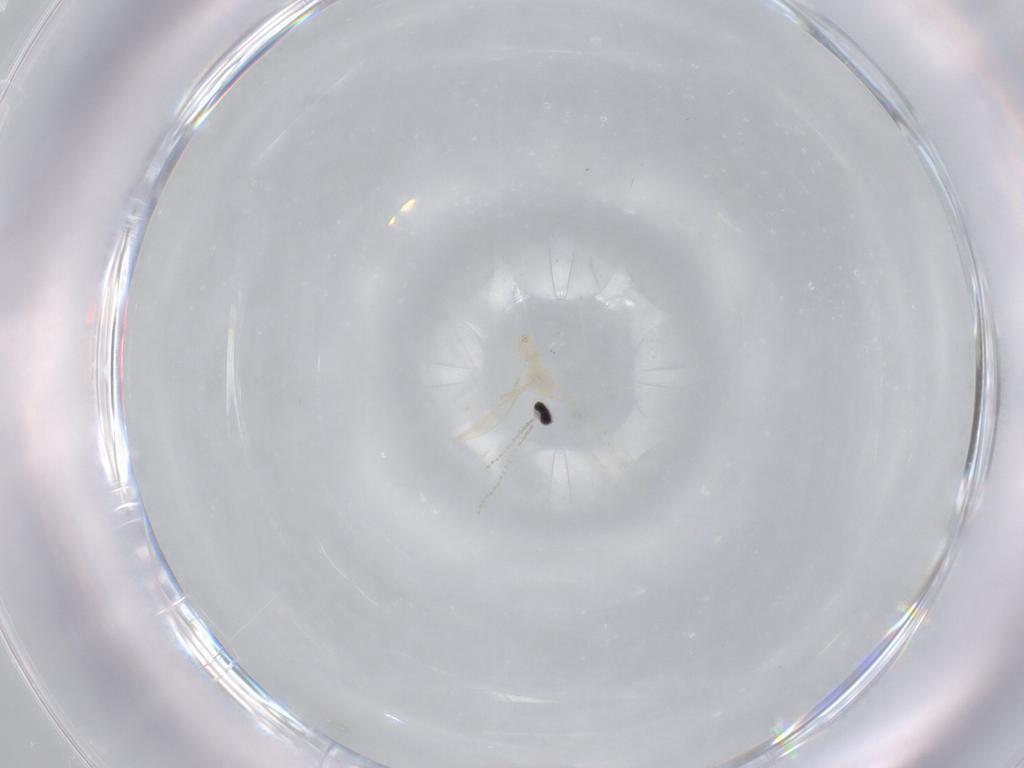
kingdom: Animalia
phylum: Arthropoda
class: Insecta
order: Diptera
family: Cecidomyiidae
